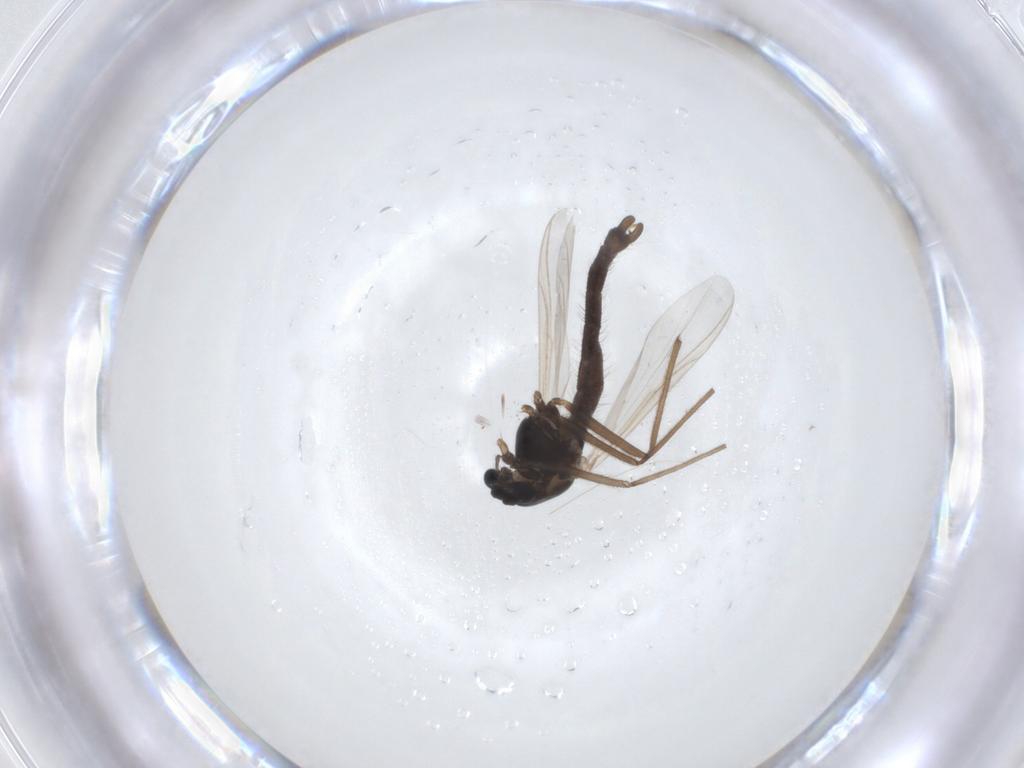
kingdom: Animalia
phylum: Arthropoda
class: Insecta
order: Diptera
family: Chironomidae
